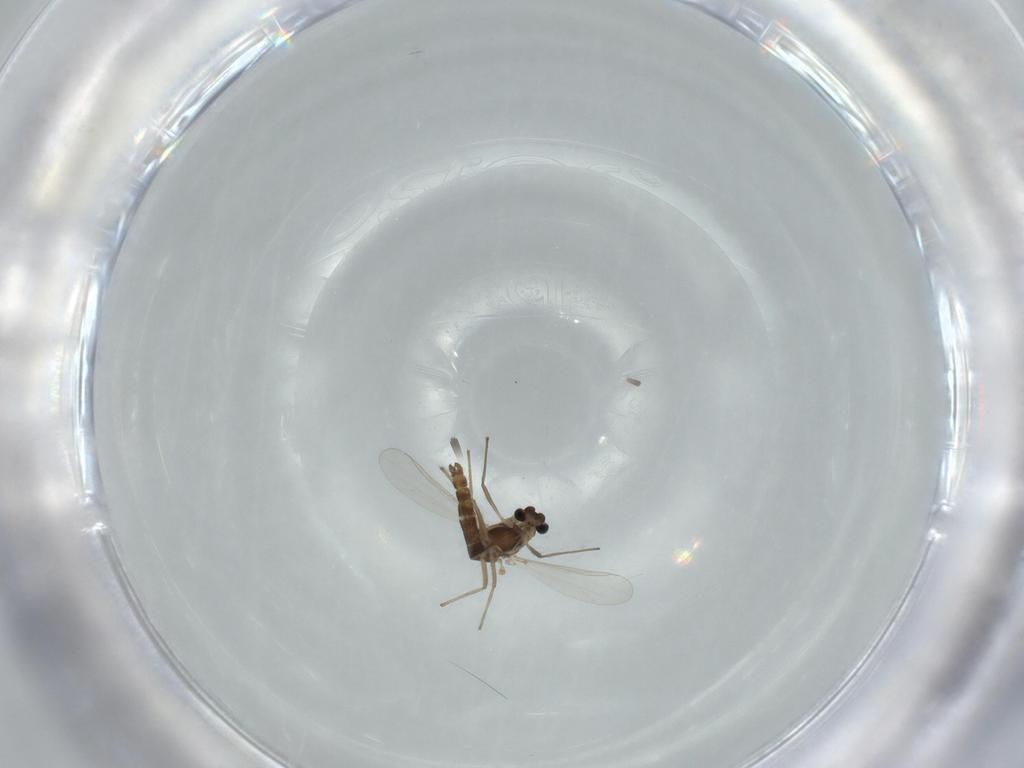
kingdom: Animalia
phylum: Arthropoda
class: Insecta
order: Diptera
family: Chironomidae
